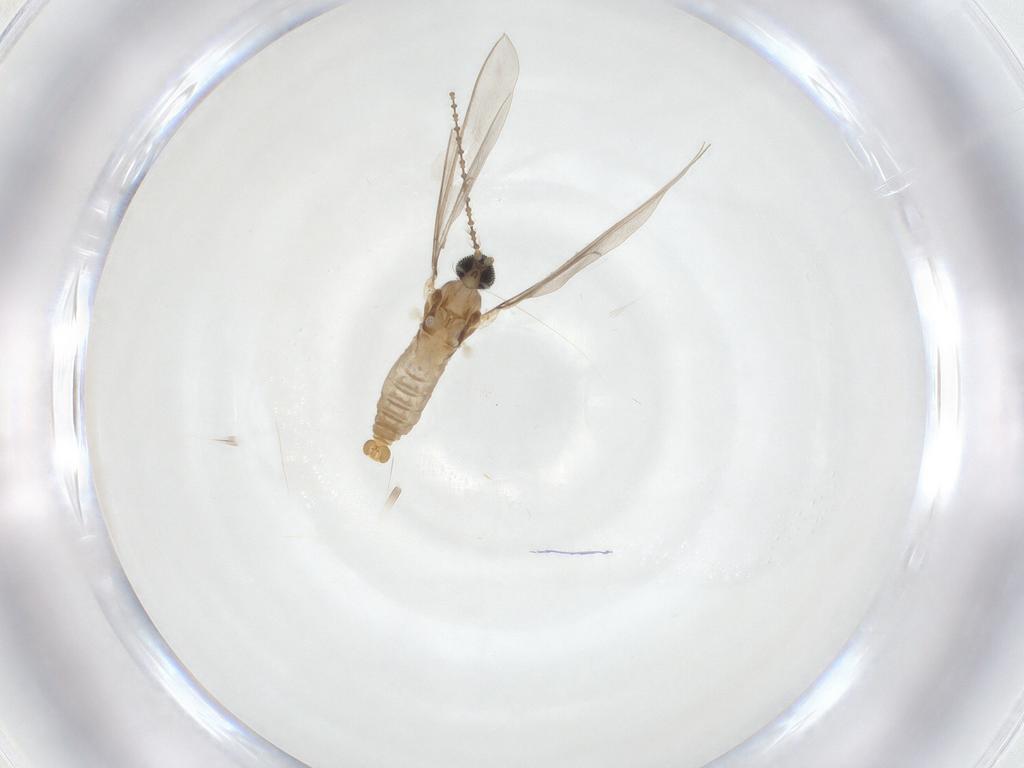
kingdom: Animalia
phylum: Arthropoda
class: Insecta
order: Diptera
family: Cecidomyiidae
